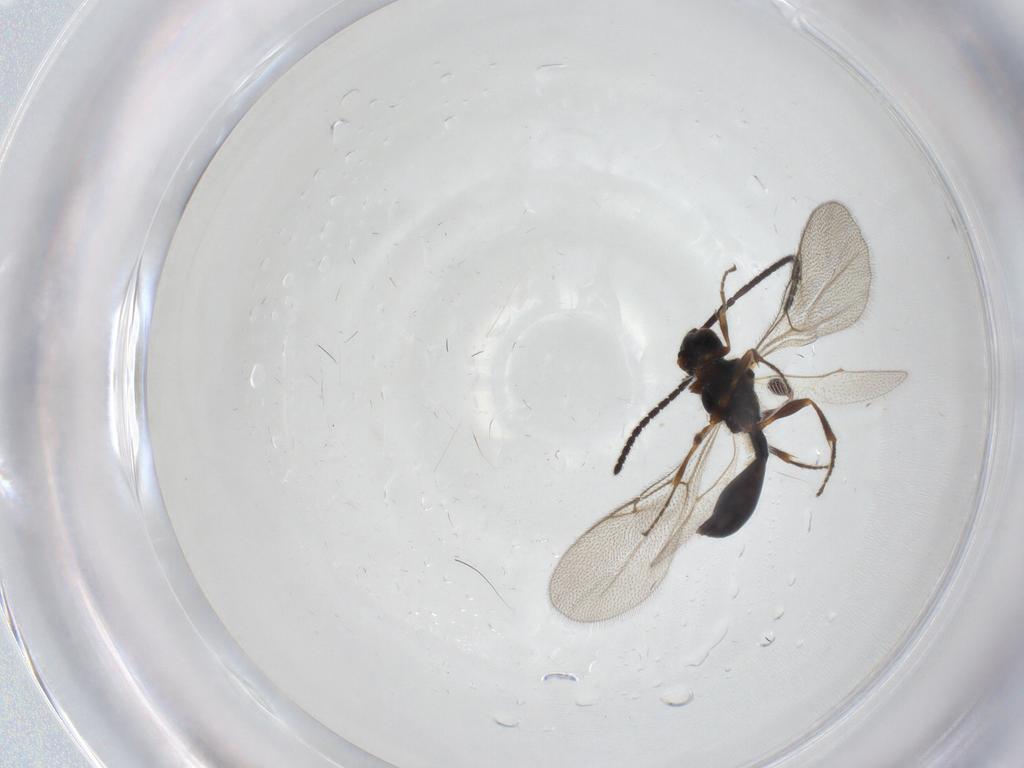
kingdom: Animalia
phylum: Arthropoda
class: Insecta
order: Hymenoptera
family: Diapriidae
